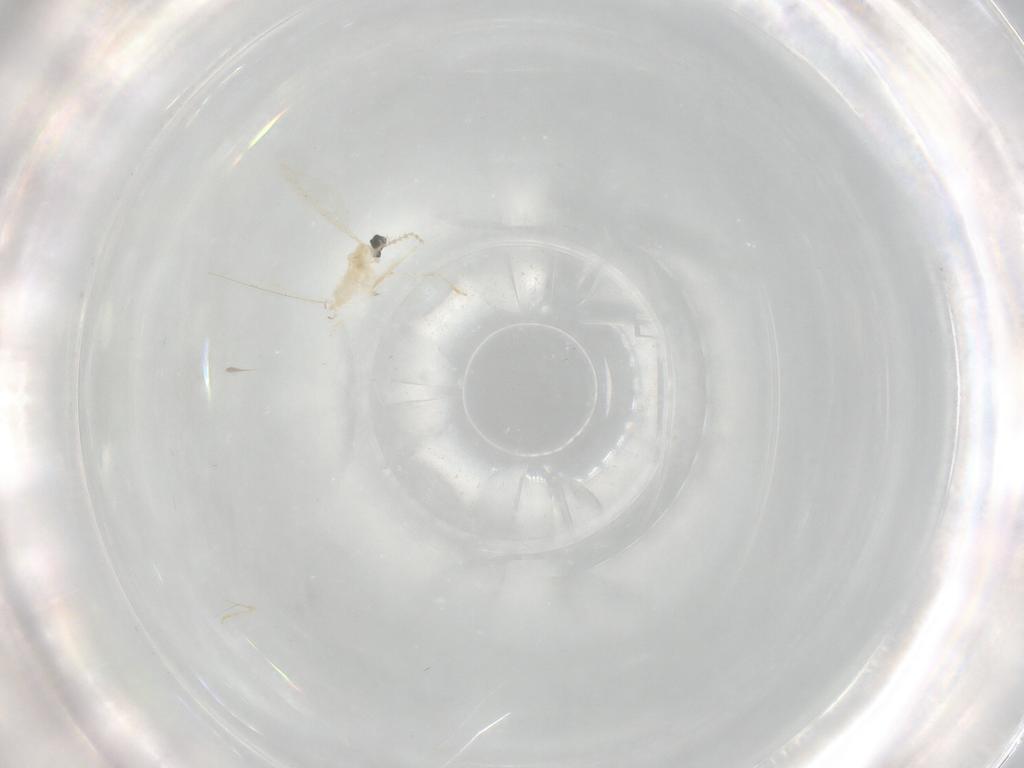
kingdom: Animalia
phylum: Arthropoda
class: Insecta
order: Diptera
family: Cecidomyiidae
